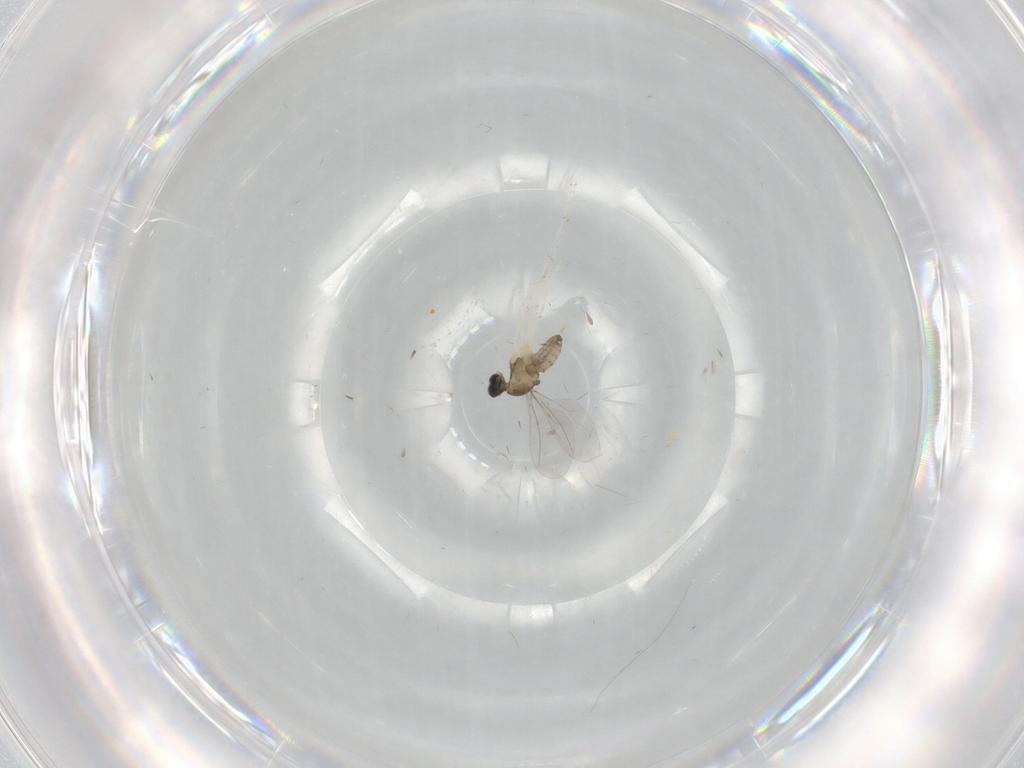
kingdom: Animalia
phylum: Arthropoda
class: Insecta
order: Diptera
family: Cecidomyiidae
